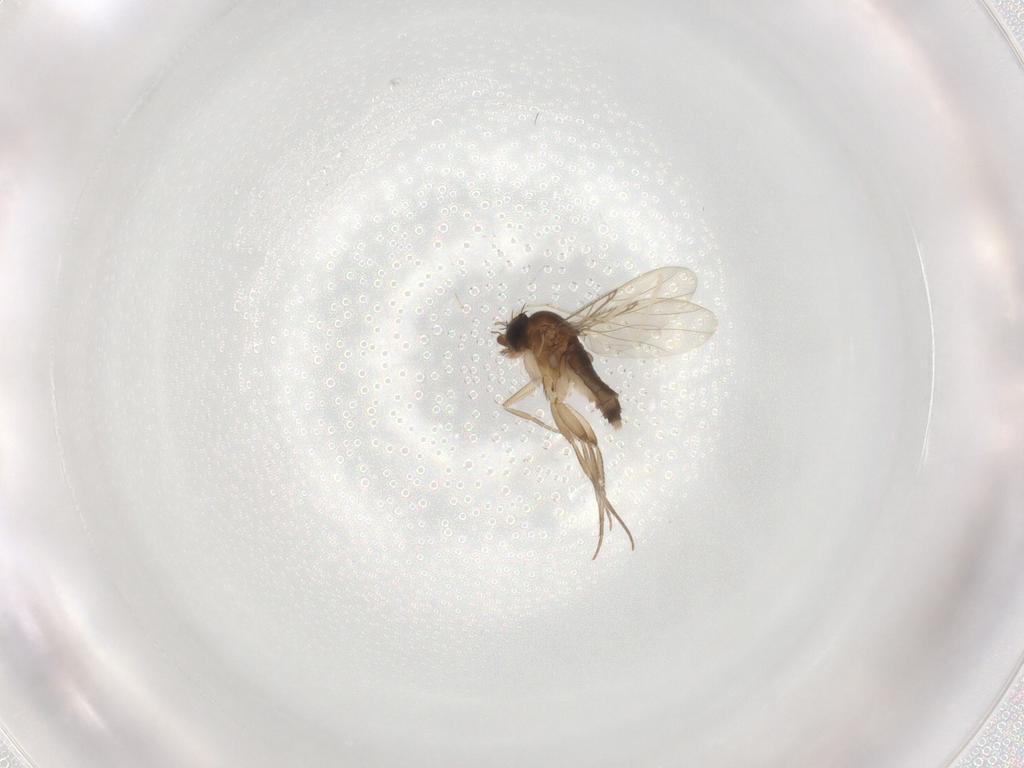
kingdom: Animalia
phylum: Arthropoda
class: Insecta
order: Diptera
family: Phoridae
